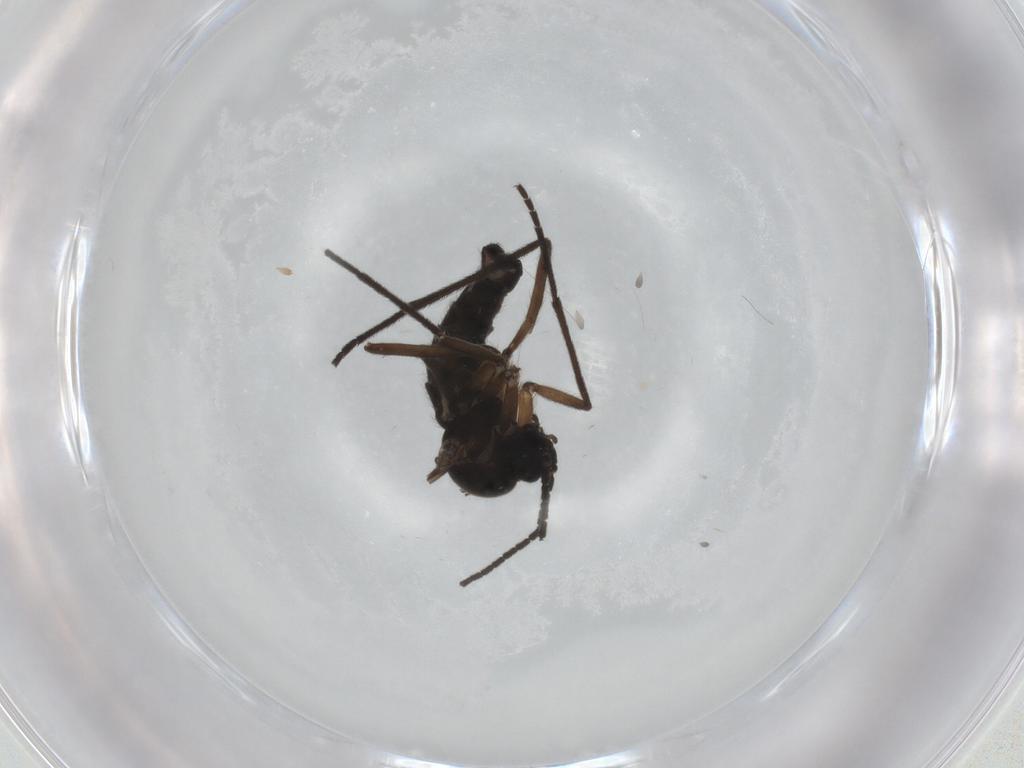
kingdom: Animalia
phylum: Arthropoda
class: Insecta
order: Diptera
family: Sciaridae
